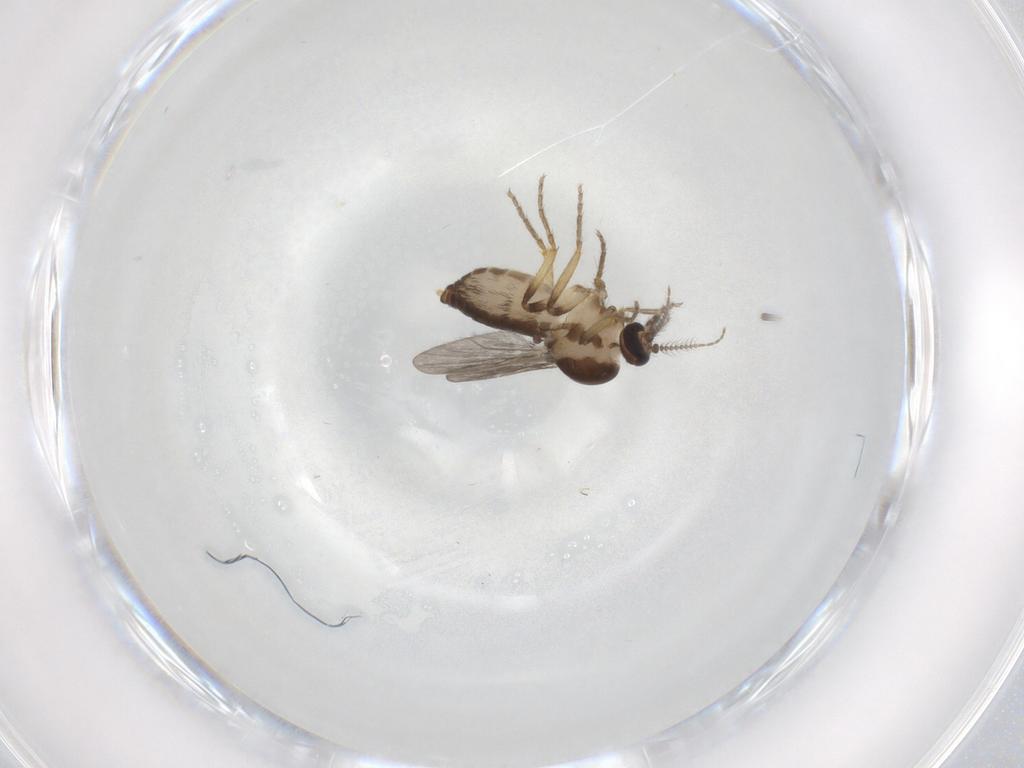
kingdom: Animalia
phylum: Arthropoda
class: Insecta
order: Diptera
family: Ceratopogonidae
